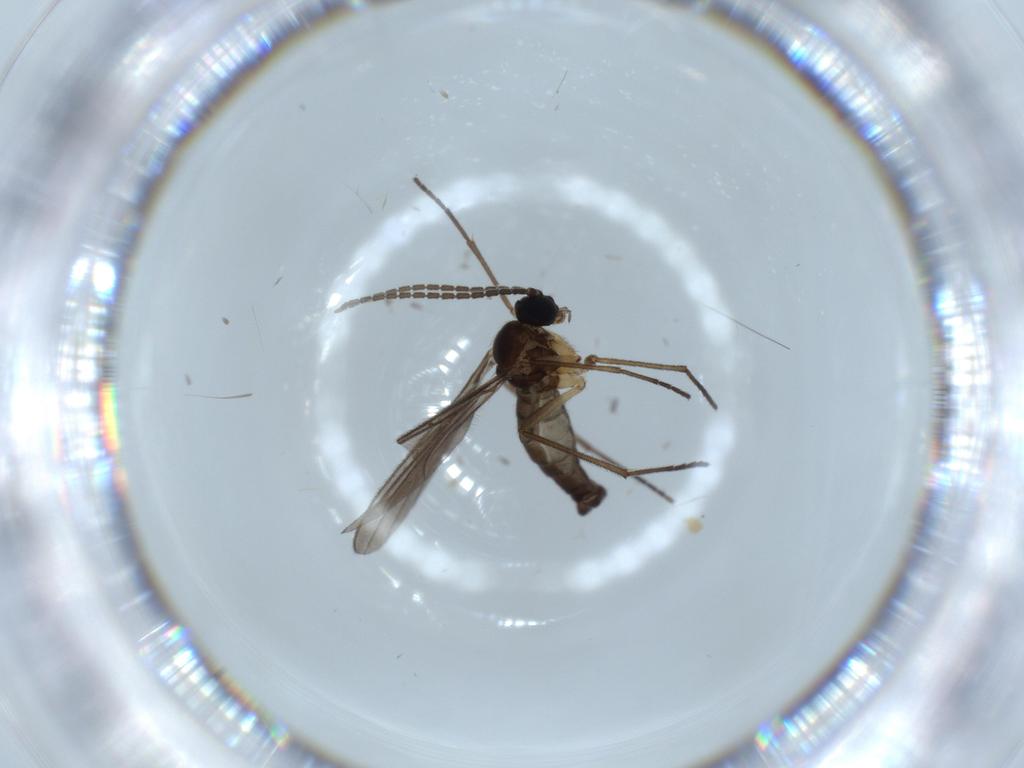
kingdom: Animalia
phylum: Arthropoda
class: Insecta
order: Diptera
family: Sciaridae
